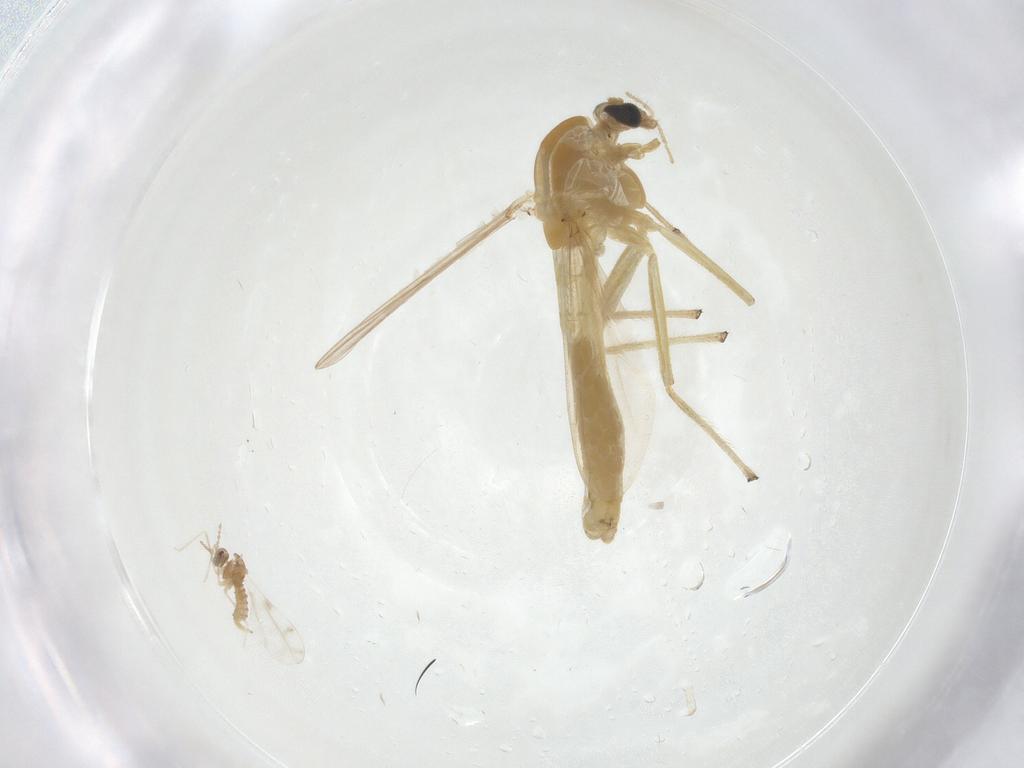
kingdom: Animalia
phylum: Arthropoda
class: Insecta
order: Diptera
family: Chironomidae
